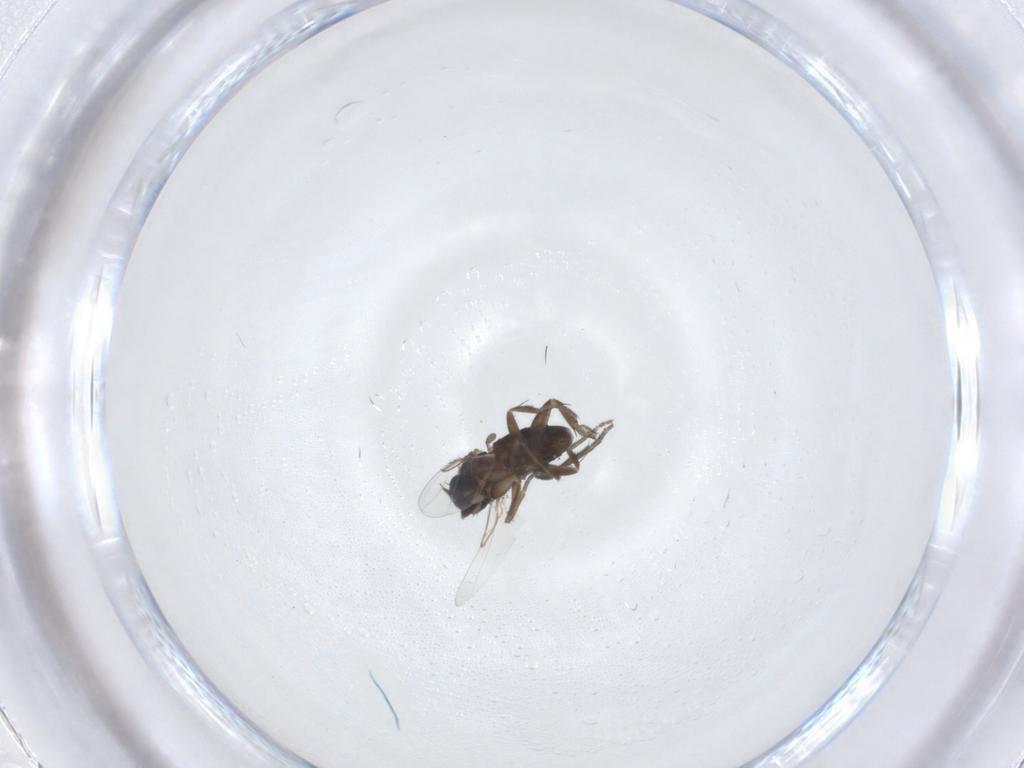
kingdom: Animalia
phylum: Arthropoda
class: Insecta
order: Diptera
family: Phoridae
